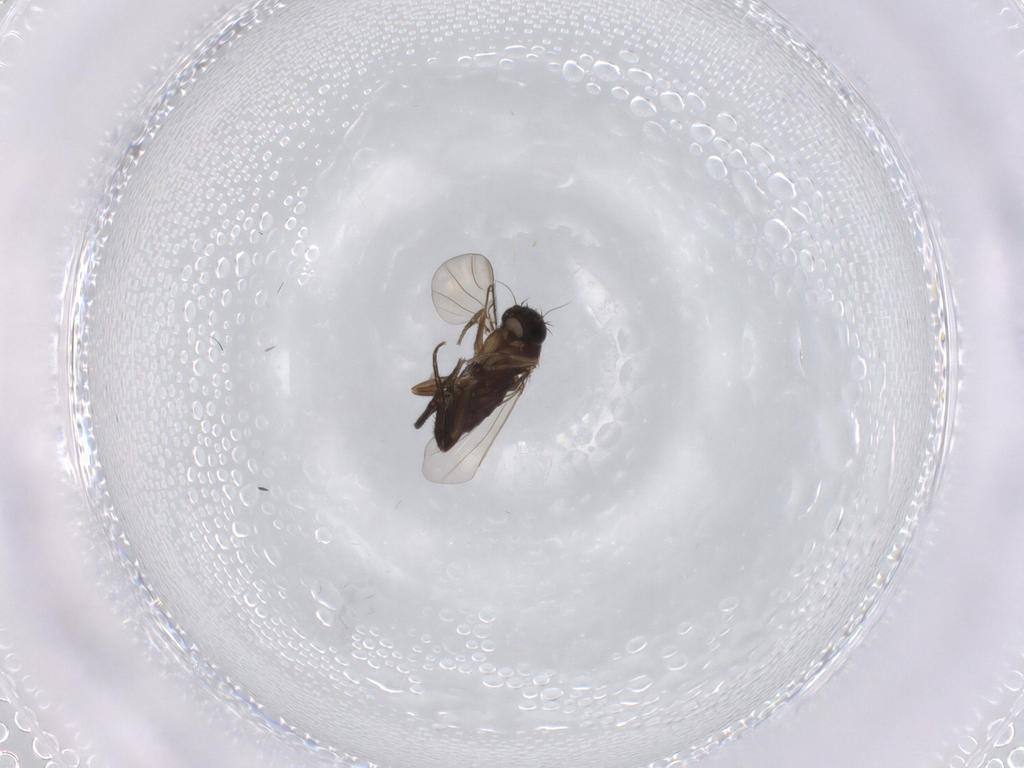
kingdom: Animalia
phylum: Arthropoda
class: Insecta
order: Diptera
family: Phoridae
